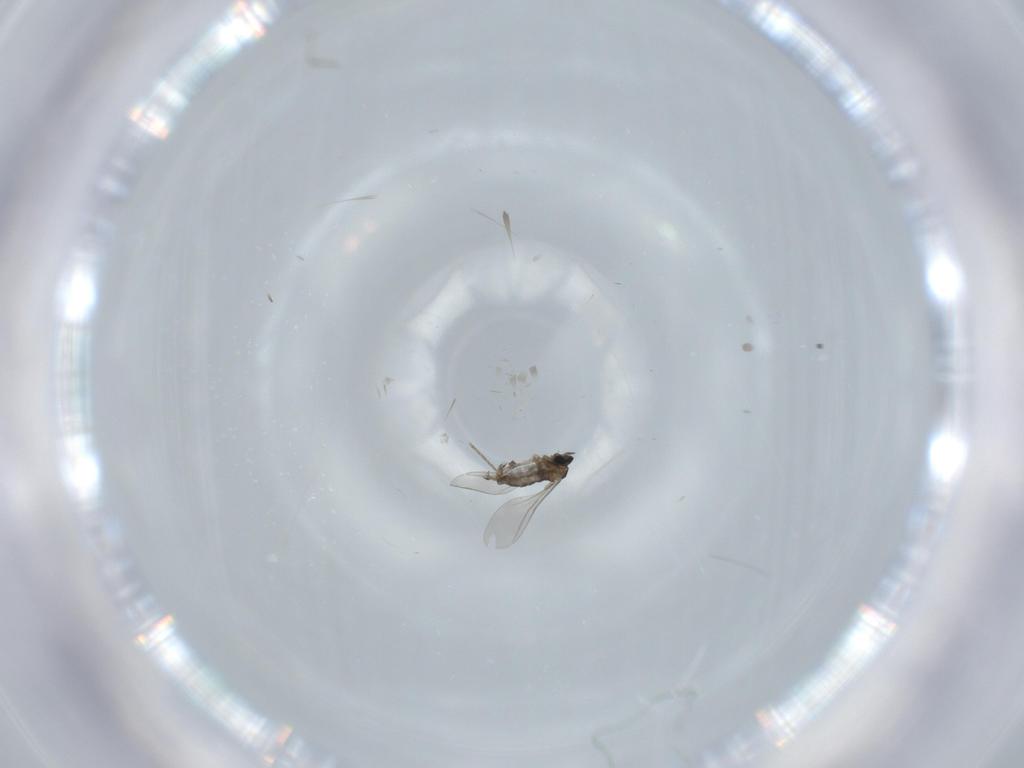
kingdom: Animalia
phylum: Arthropoda
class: Insecta
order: Diptera
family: Cecidomyiidae
